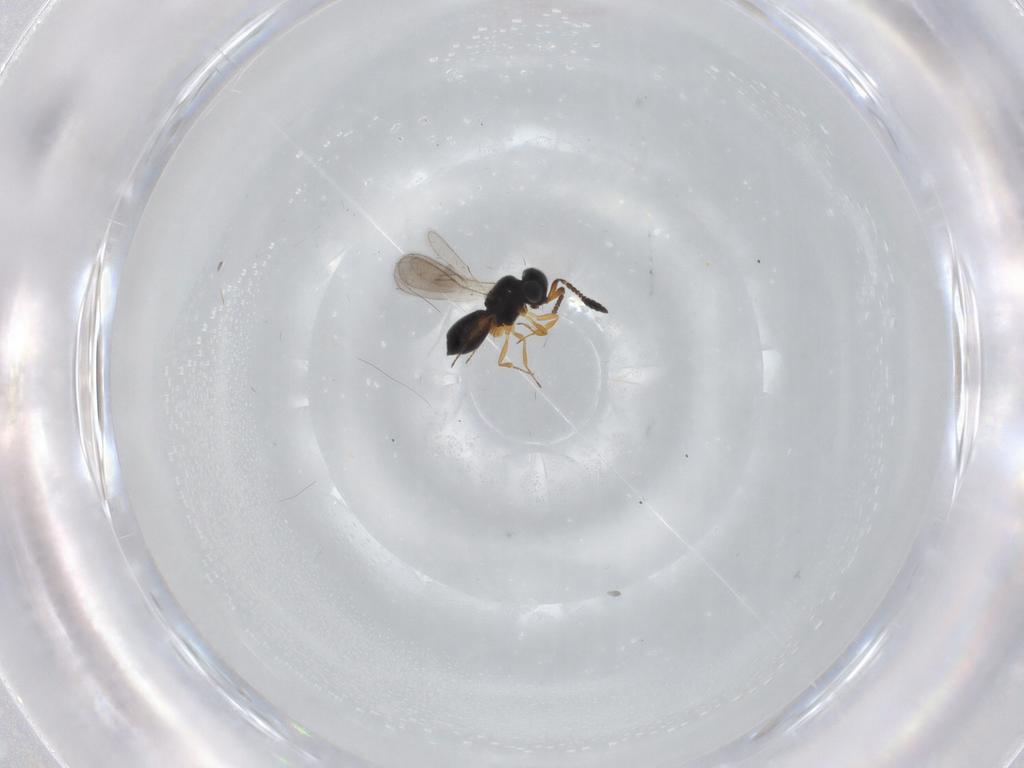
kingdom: Animalia
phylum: Arthropoda
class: Insecta
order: Hymenoptera
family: Scelionidae
